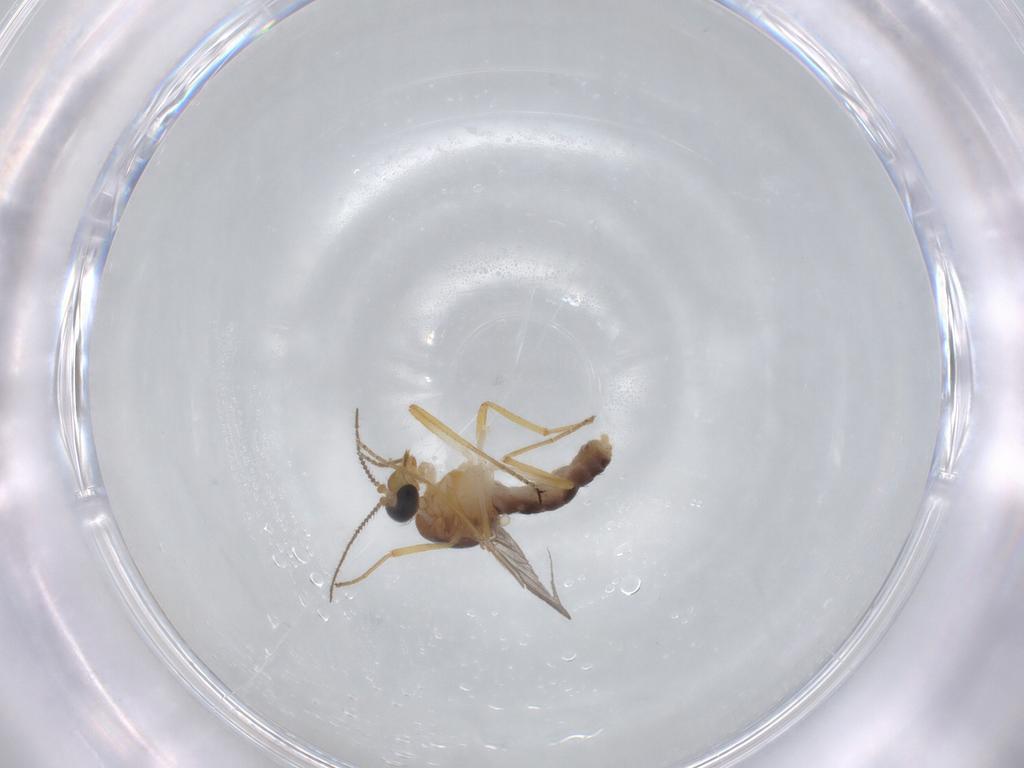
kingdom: Animalia
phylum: Arthropoda
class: Insecta
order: Diptera
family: Ceratopogonidae
